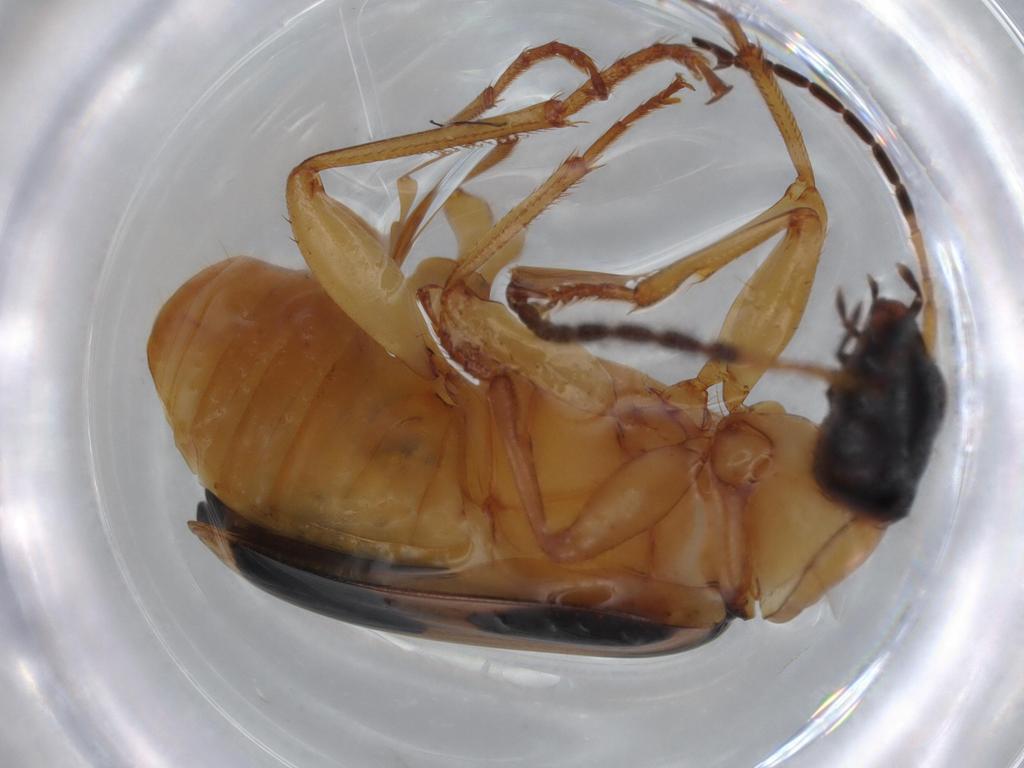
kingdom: Animalia
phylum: Arthropoda
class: Insecta
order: Coleoptera
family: Carabidae
